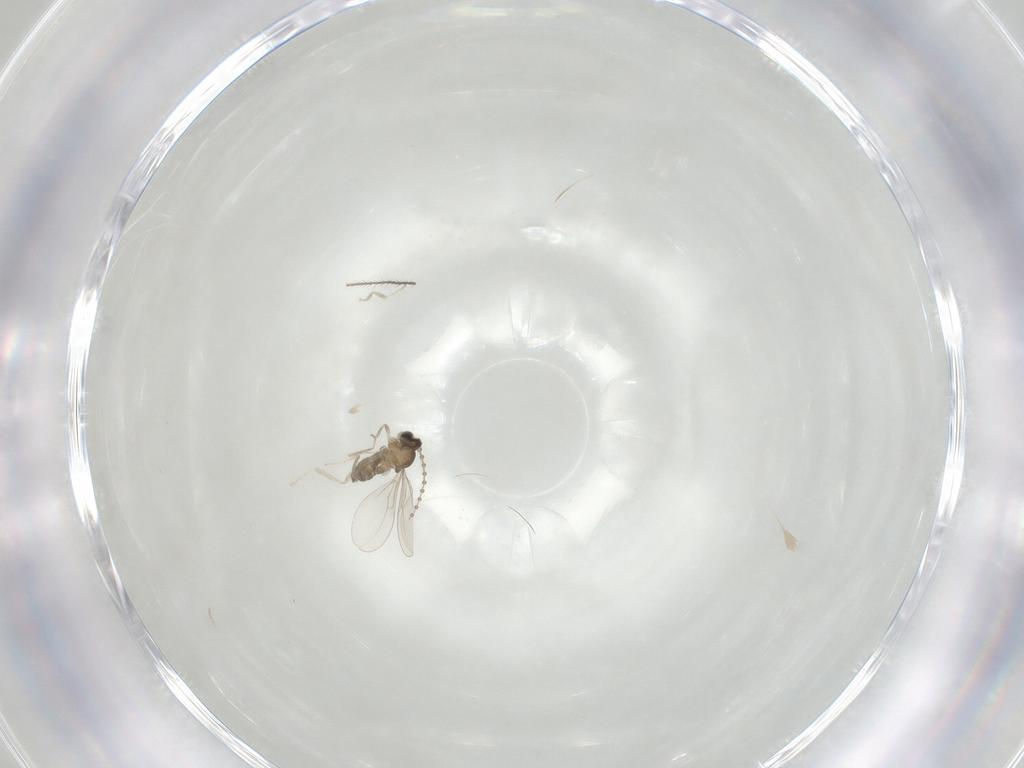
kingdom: Animalia
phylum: Arthropoda
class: Insecta
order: Diptera
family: Cecidomyiidae
